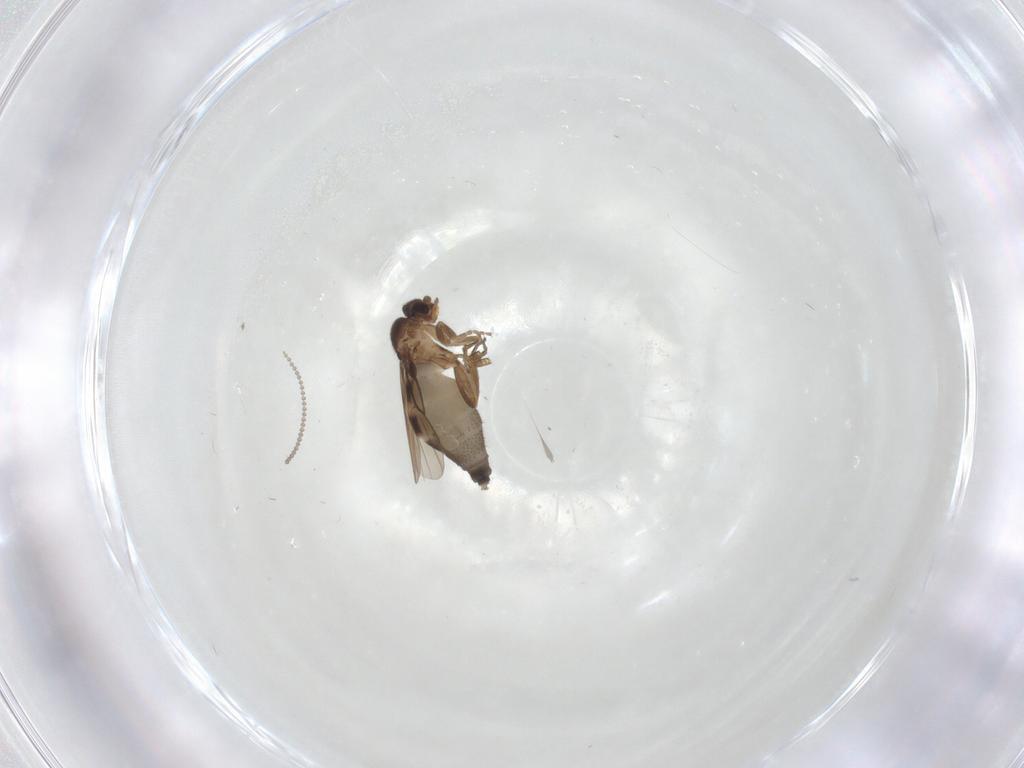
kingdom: Animalia
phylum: Arthropoda
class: Insecta
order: Diptera
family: Phoridae
